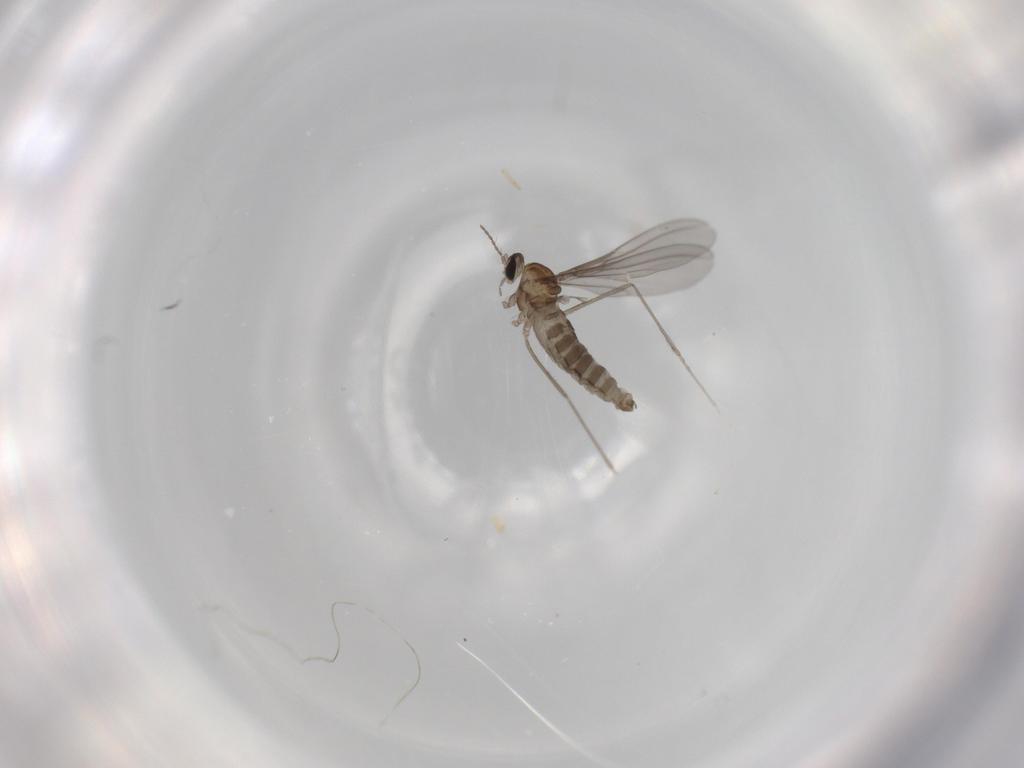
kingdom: Animalia
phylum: Arthropoda
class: Insecta
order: Diptera
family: Cecidomyiidae
